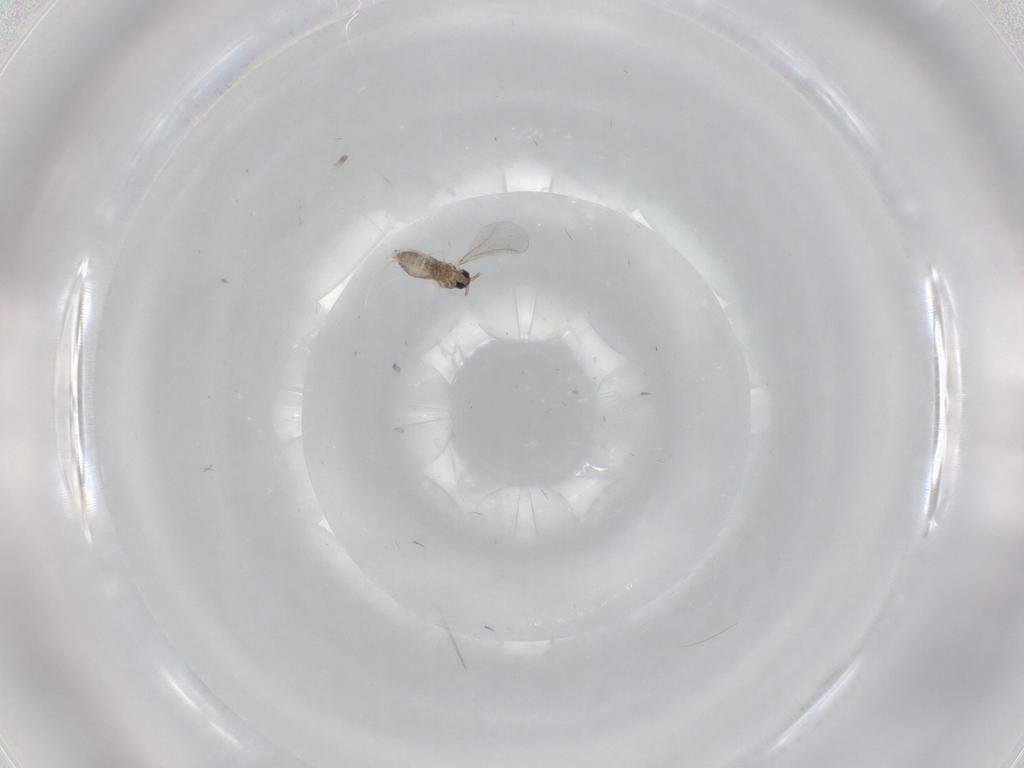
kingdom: Animalia
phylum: Arthropoda
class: Insecta
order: Diptera
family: Cecidomyiidae
